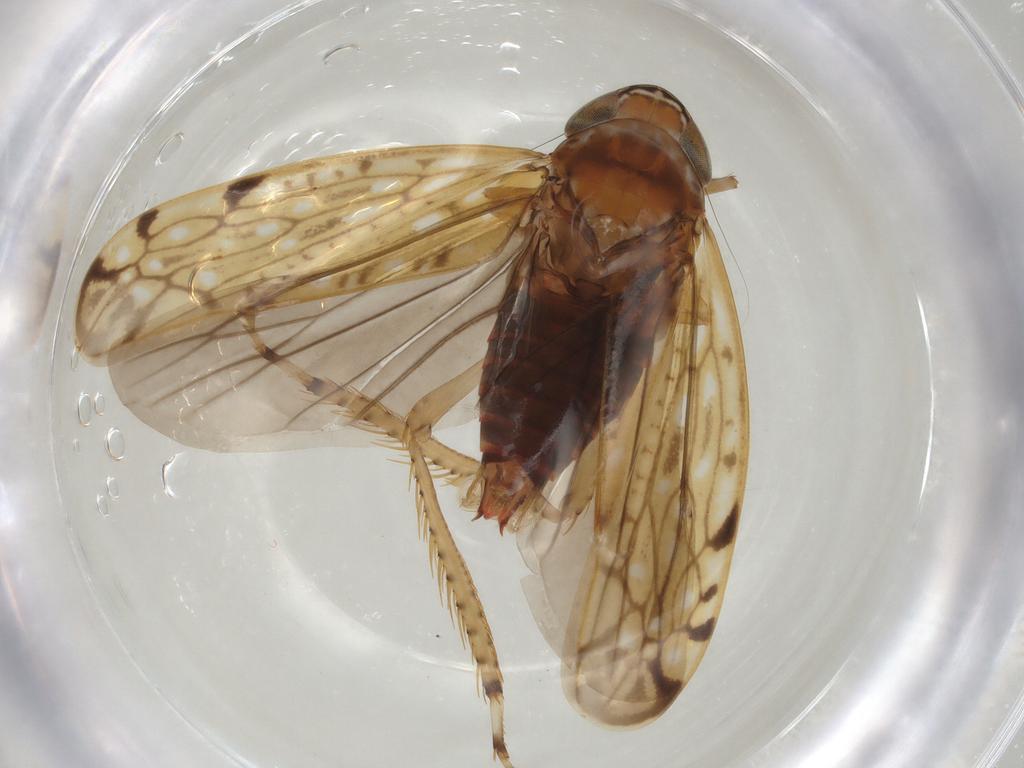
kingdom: Animalia
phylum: Arthropoda
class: Insecta
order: Hemiptera
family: Cicadellidae
